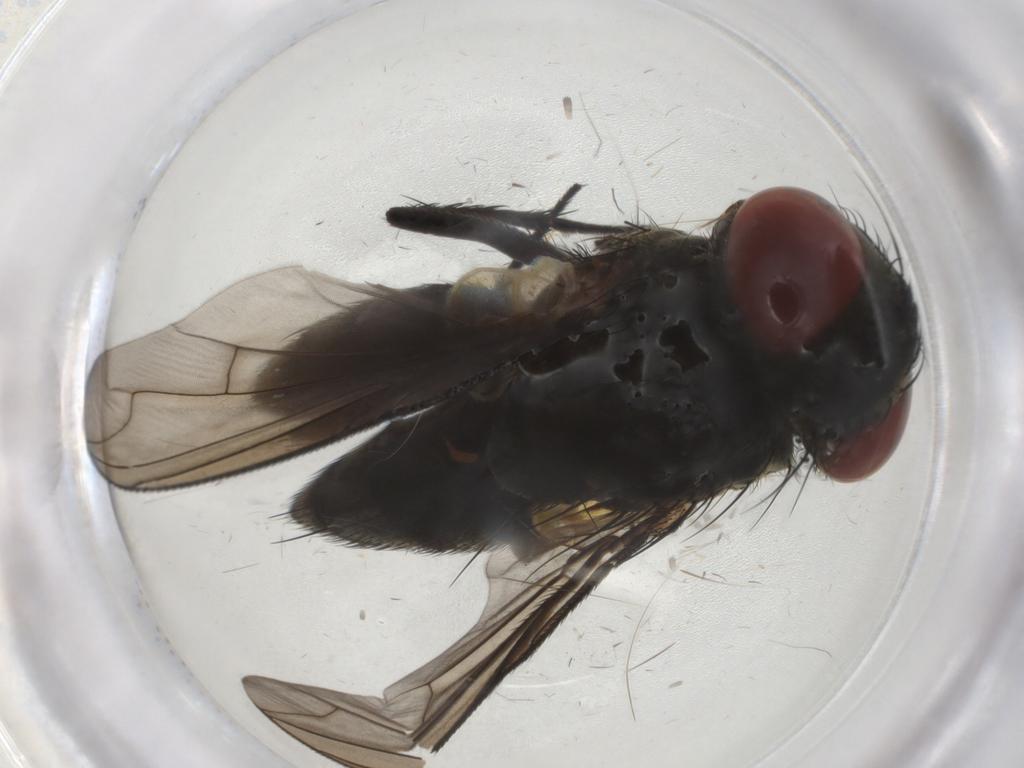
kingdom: Animalia
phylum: Arthropoda
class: Insecta
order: Diptera
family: Sarcophagidae
